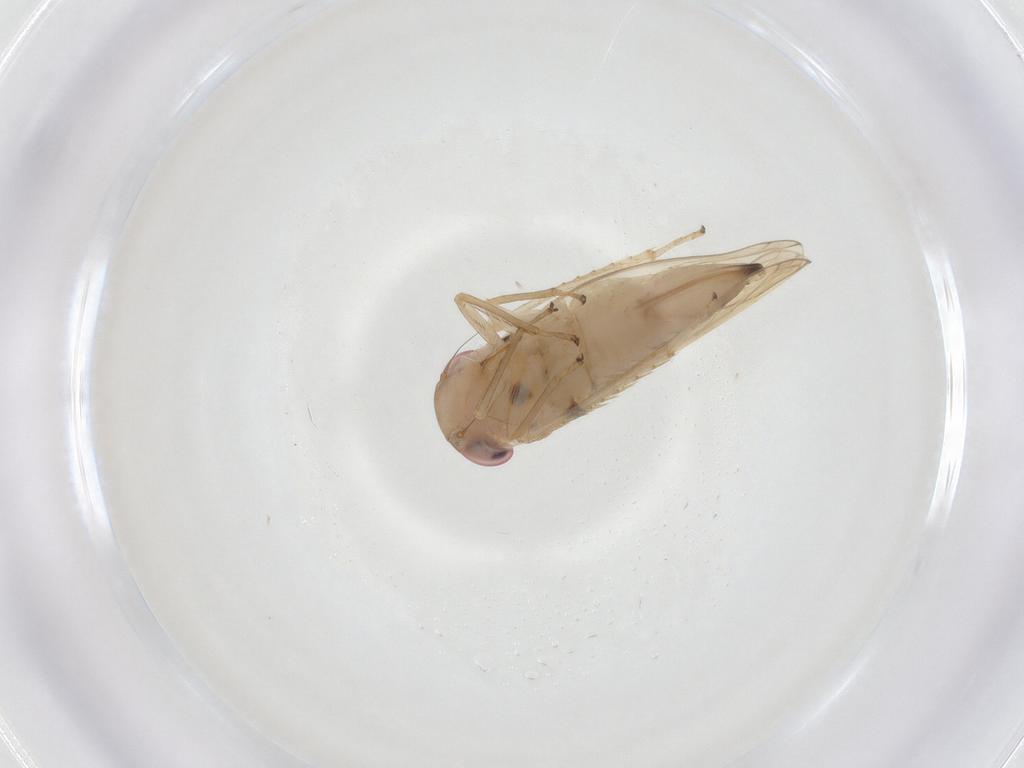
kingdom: Animalia
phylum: Arthropoda
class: Insecta
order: Hemiptera
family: Cicadellidae
